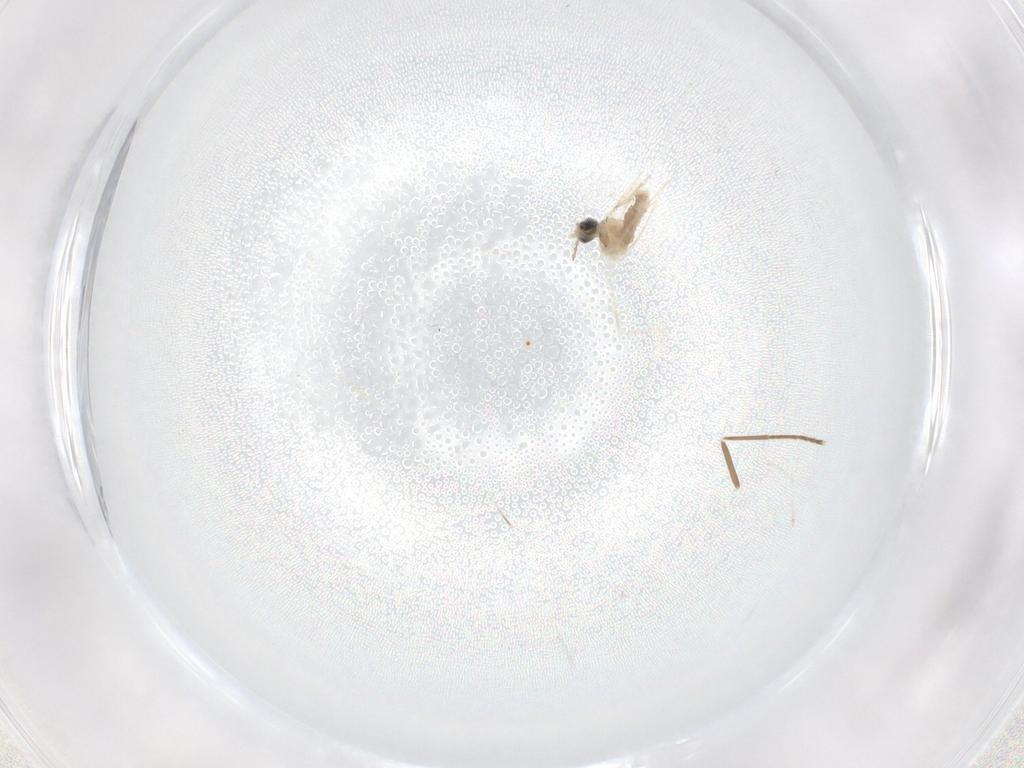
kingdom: Animalia
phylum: Arthropoda
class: Insecta
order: Diptera
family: Cecidomyiidae
